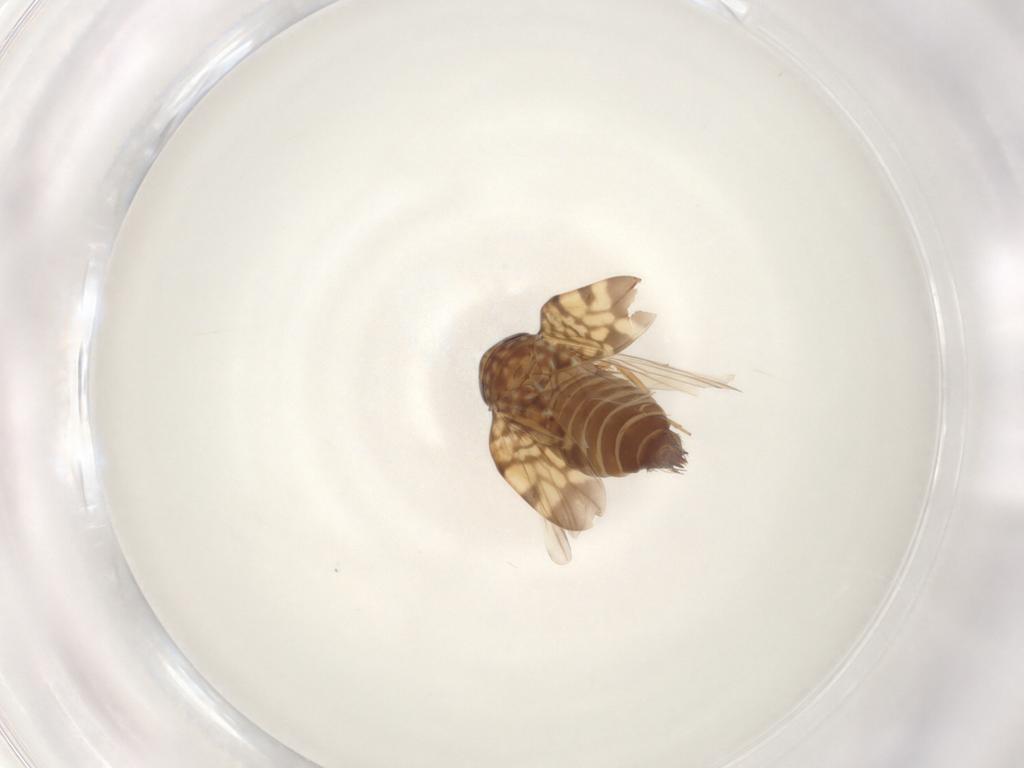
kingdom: Animalia
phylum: Arthropoda
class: Insecta
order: Hemiptera
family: Cicadellidae
